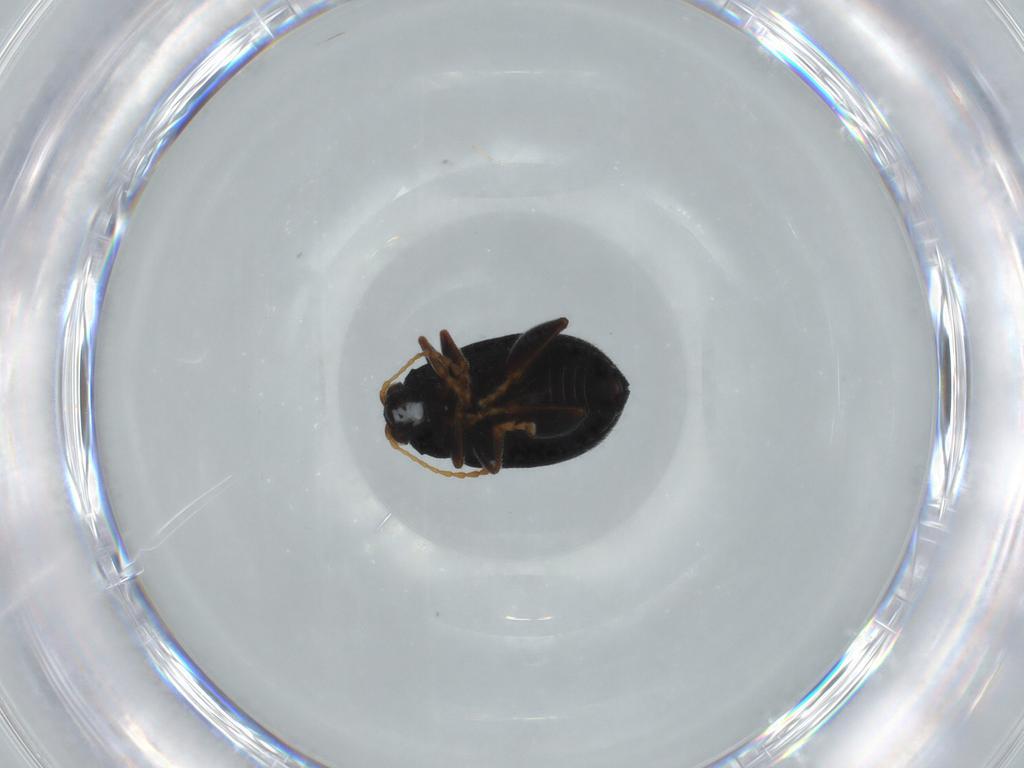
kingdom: Animalia
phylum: Arthropoda
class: Insecta
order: Coleoptera
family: Chrysomelidae
